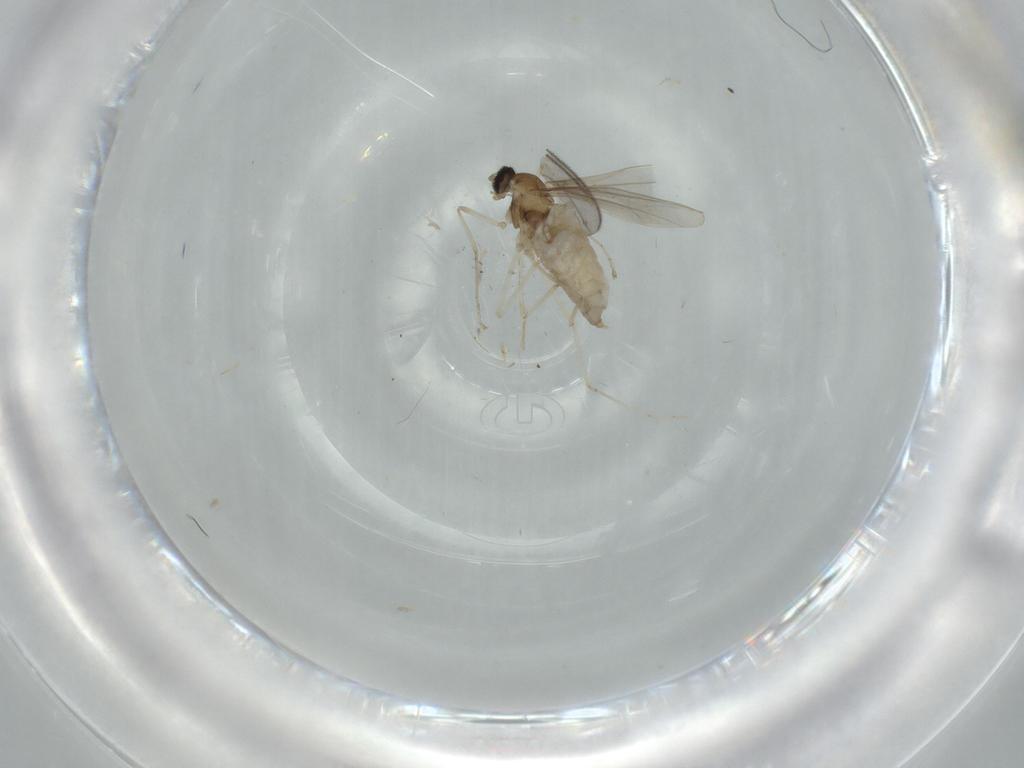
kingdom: Animalia
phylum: Arthropoda
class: Insecta
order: Diptera
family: Cecidomyiidae
